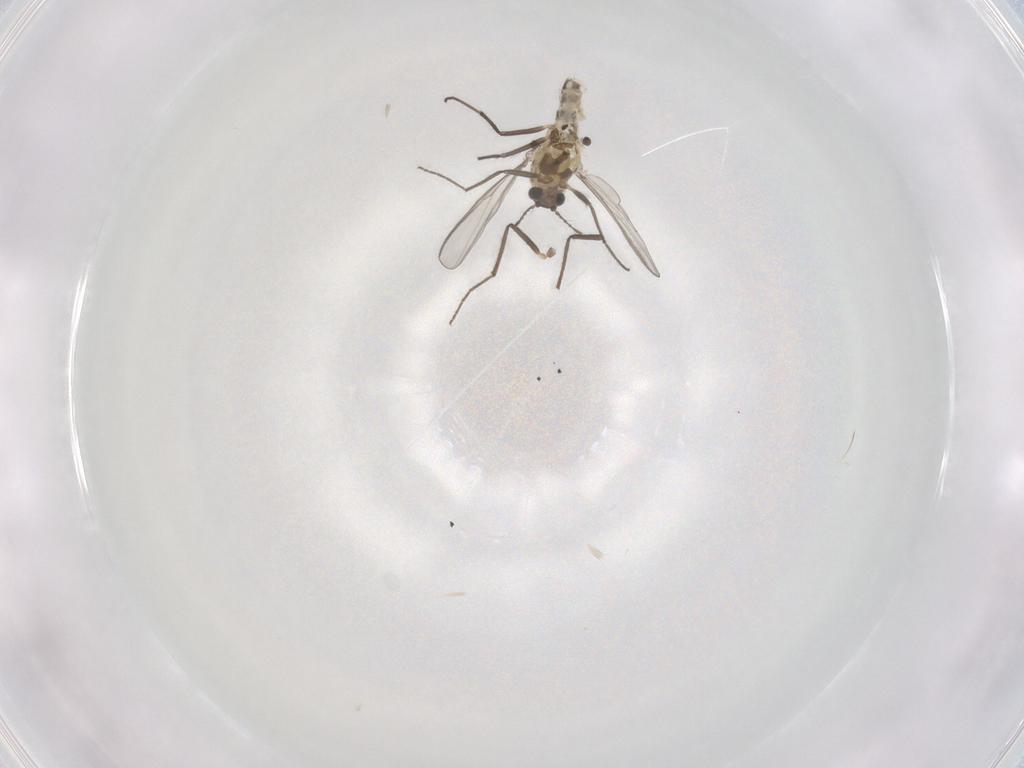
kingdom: Animalia
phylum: Arthropoda
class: Insecta
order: Diptera
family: Chironomidae
